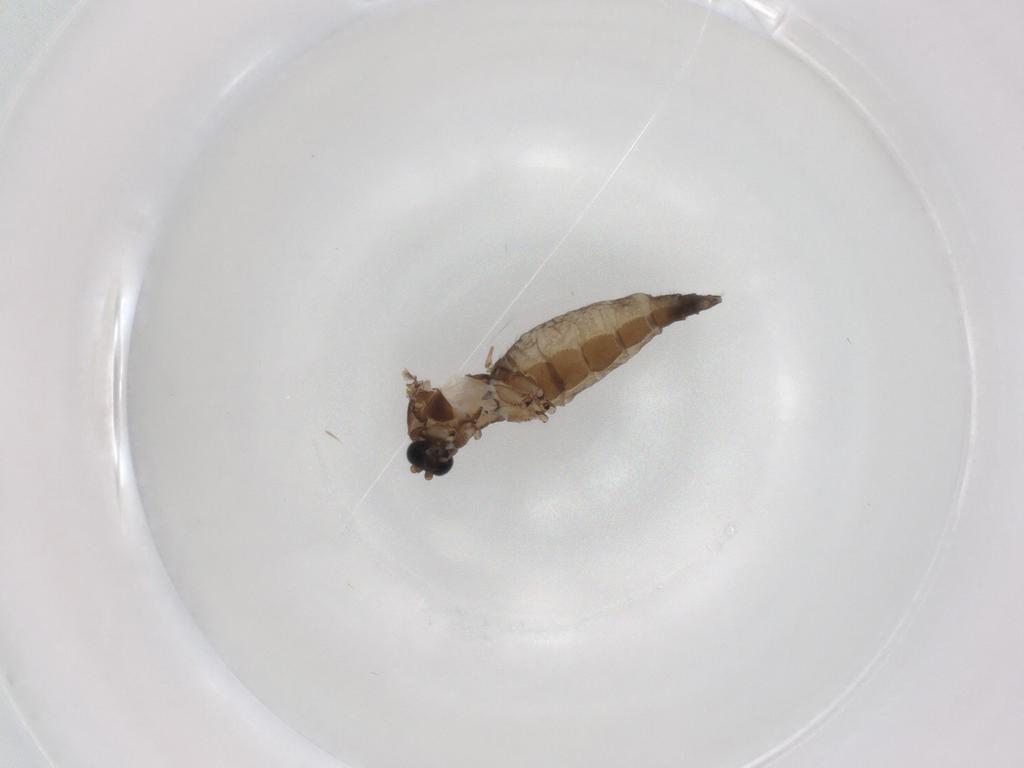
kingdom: Animalia
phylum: Arthropoda
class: Insecta
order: Diptera
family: Sciaridae
